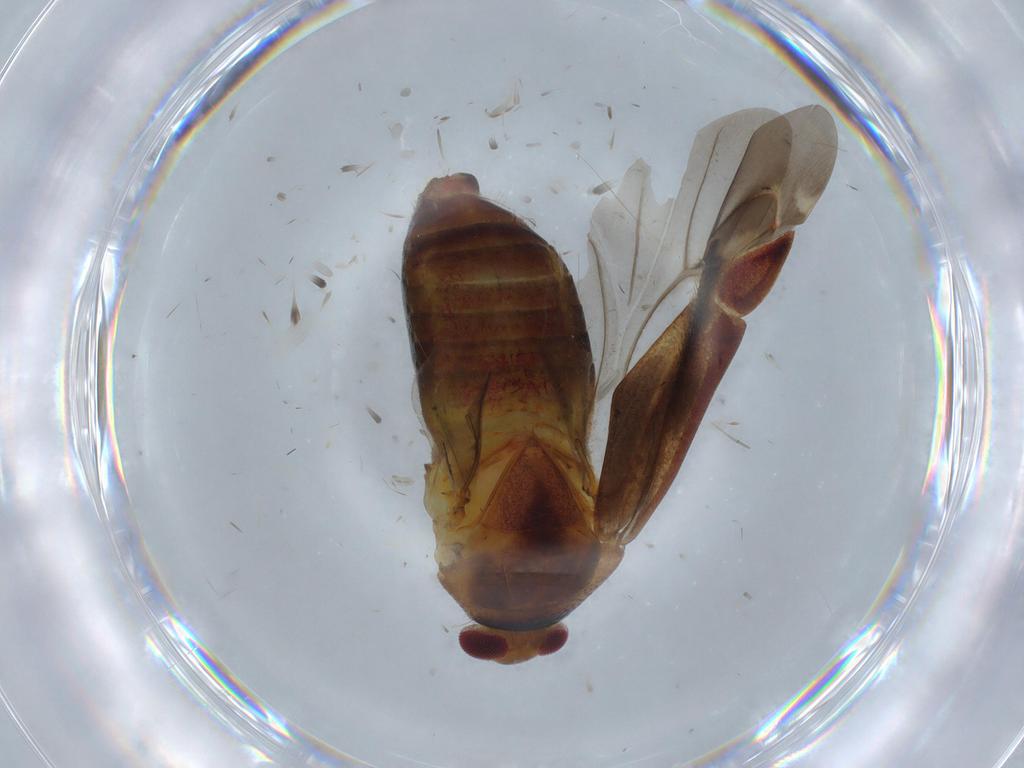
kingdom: Animalia
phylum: Arthropoda
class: Insecta
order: Hemiptera
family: Miridae
